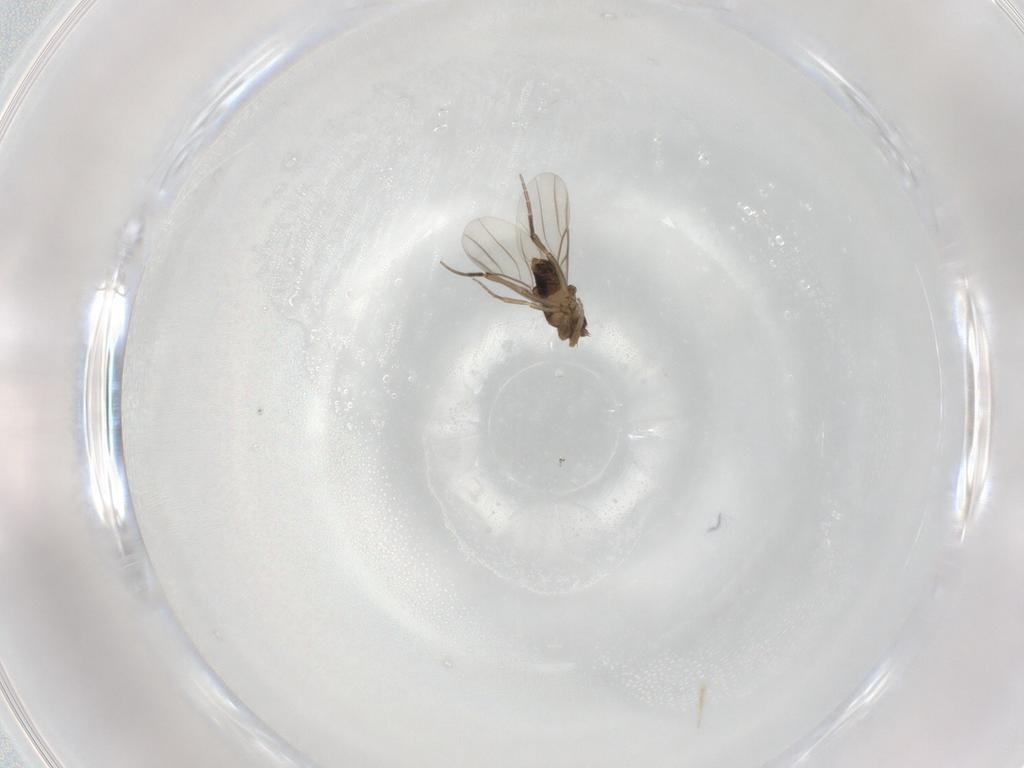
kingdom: Animalia
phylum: Arthropoda
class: Insecta
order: Diptera
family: Phoridae
